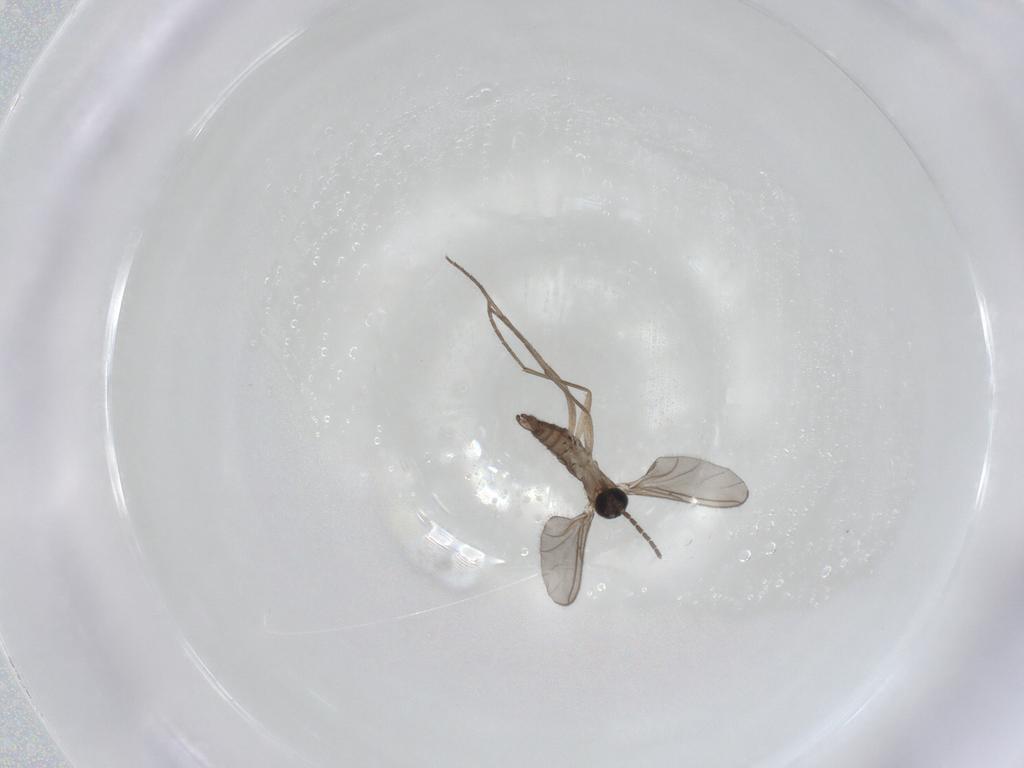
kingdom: Animalia
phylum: Arthropoda
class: Insecta
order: Diptera
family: Sciaridae
